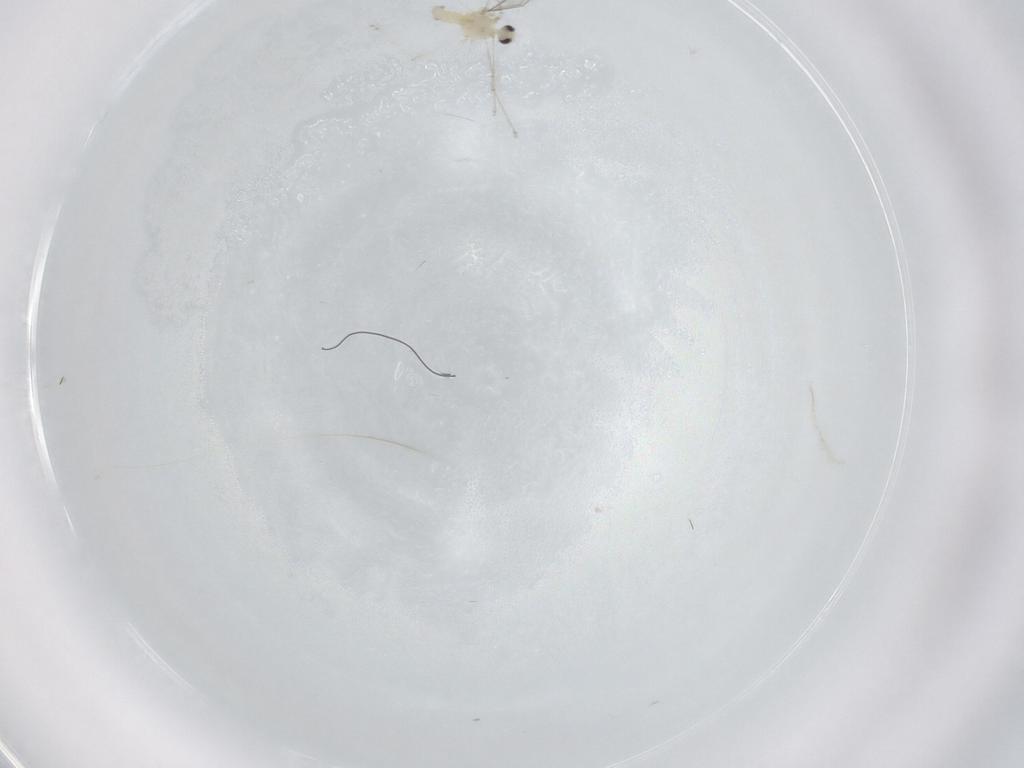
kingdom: Animalia
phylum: Arthropoda
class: Insecta
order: Diptera
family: Cecidomyiidae
